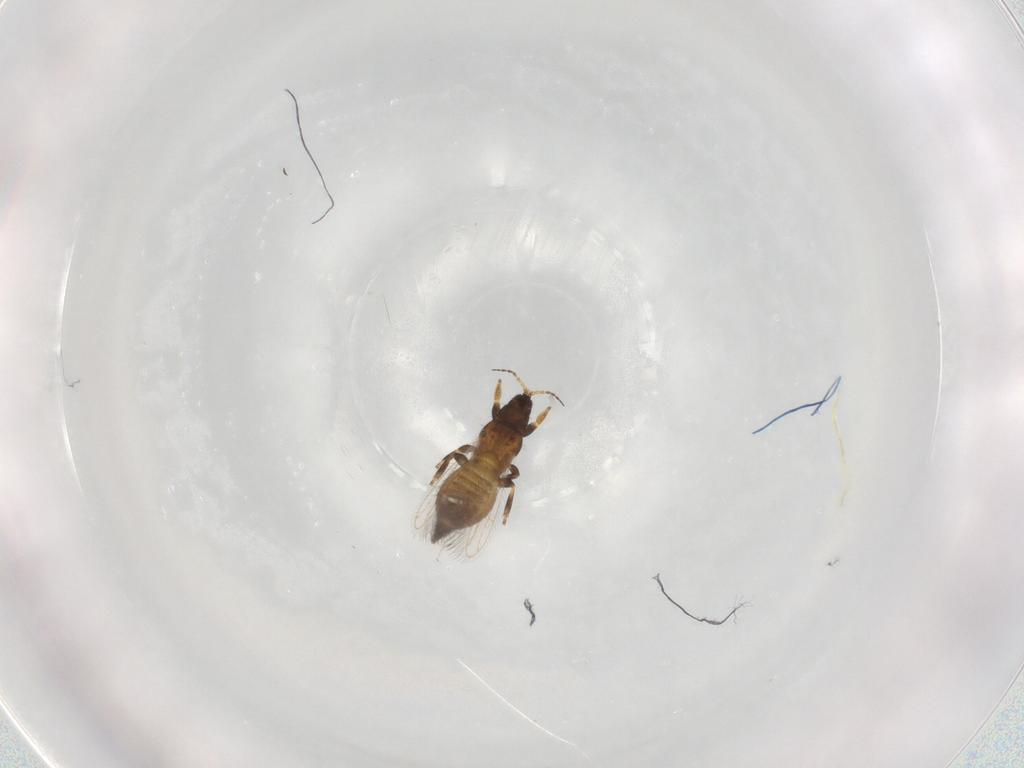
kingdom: Animalia
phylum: Arthropoda
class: Insecta
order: Thysanoptera
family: Melanthripidae
